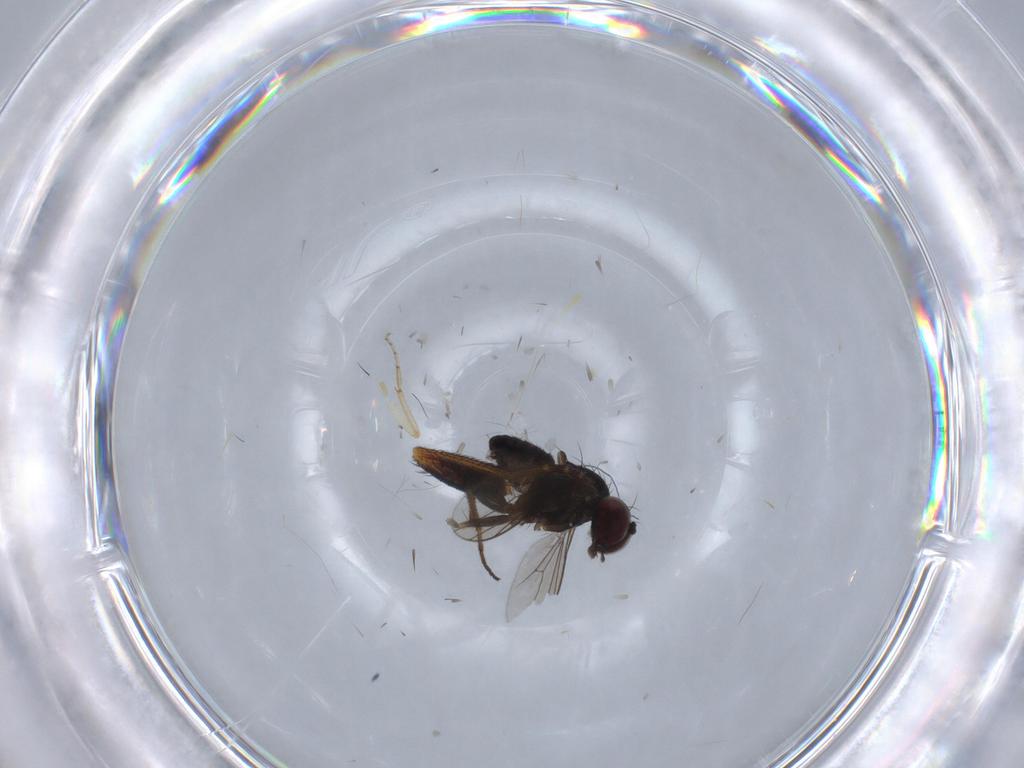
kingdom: Animalia
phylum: Arthropoda
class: Insecta
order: Diptera
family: Dolichopodidae
